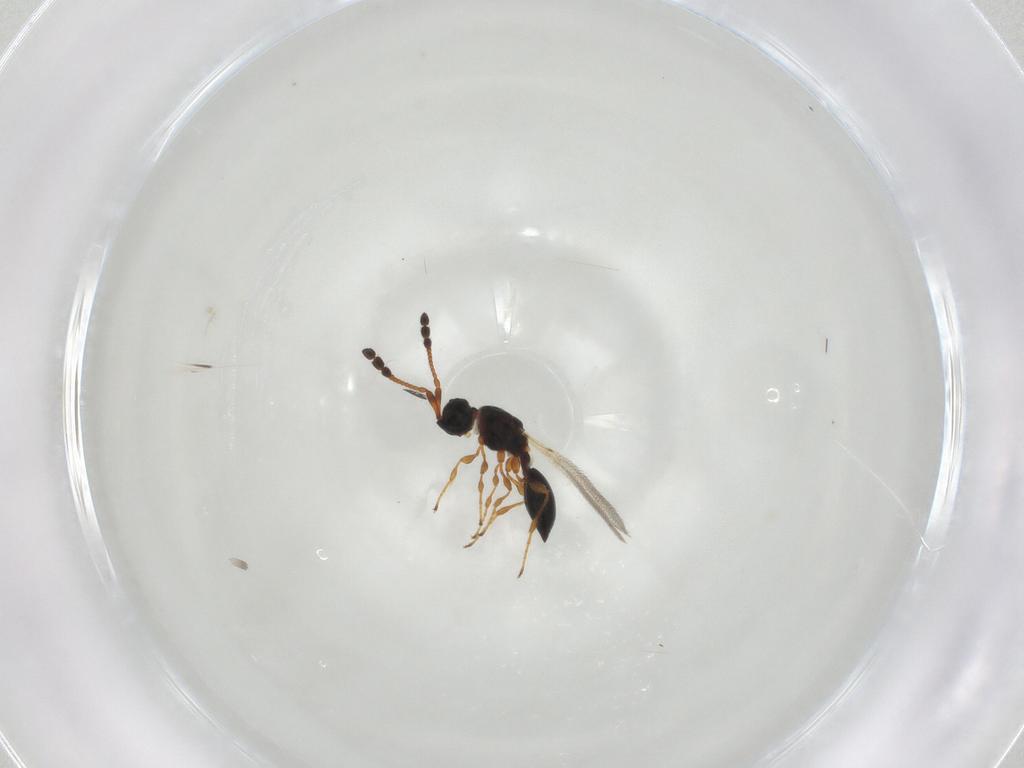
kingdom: Animalia
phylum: Arthropoda
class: Insecta
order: Hymenoptera
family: Diapriidae
